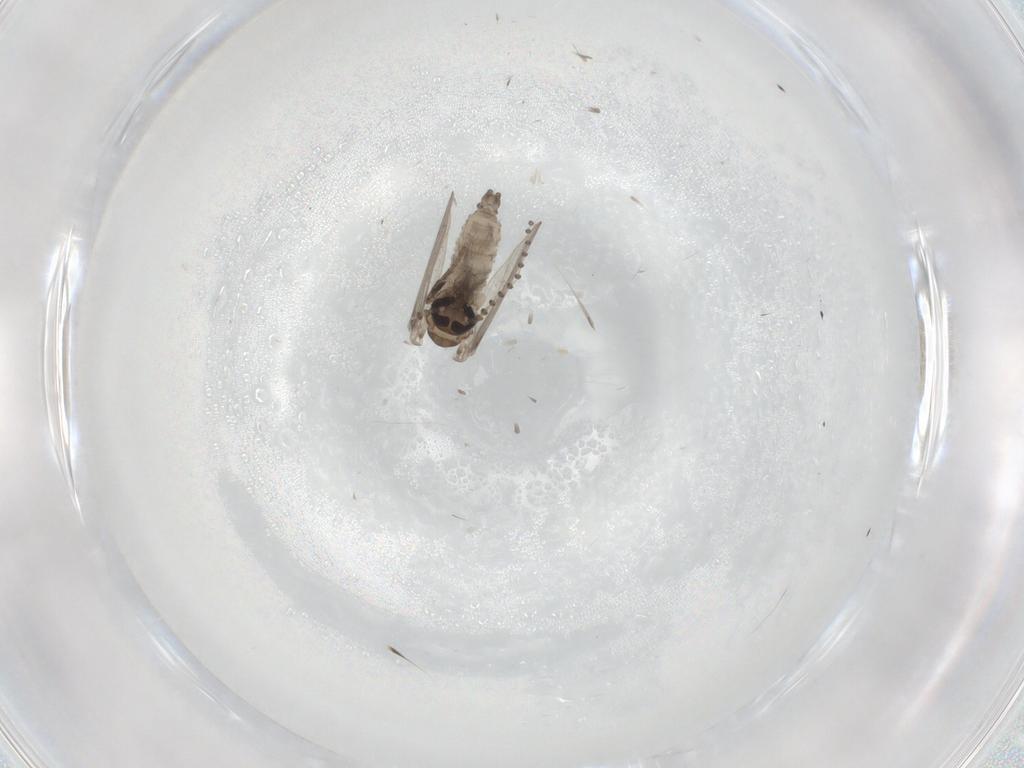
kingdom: Animalia
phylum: Arthropoda
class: Insecta
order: Diptera
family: Psychodidae
